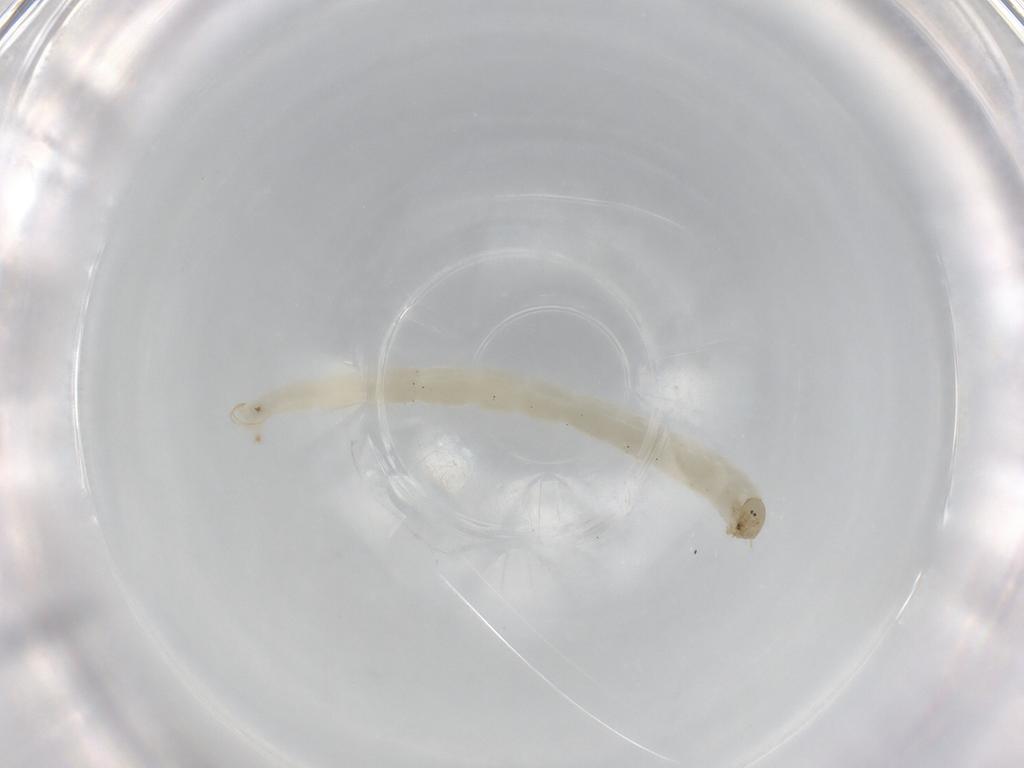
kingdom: Animalia
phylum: Arthropoda
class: Insecta
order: Diptera
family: Chironomidae
